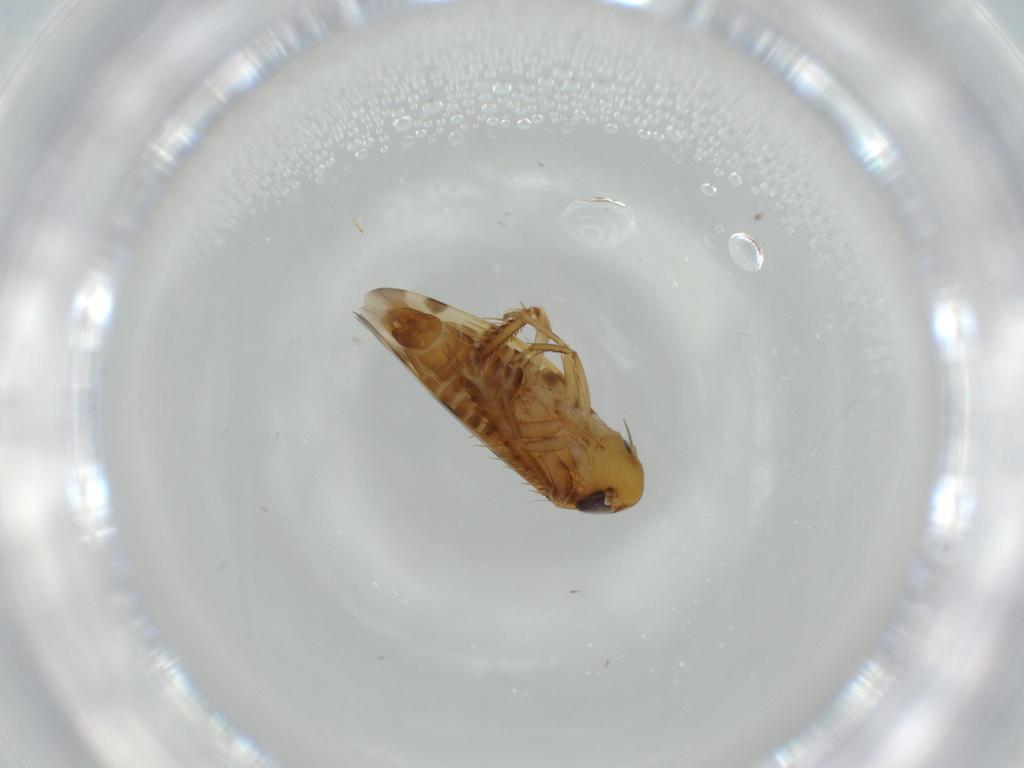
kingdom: Animalia
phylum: Arthropoda
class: Insecta
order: Hemiptera
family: Cicadellidae
